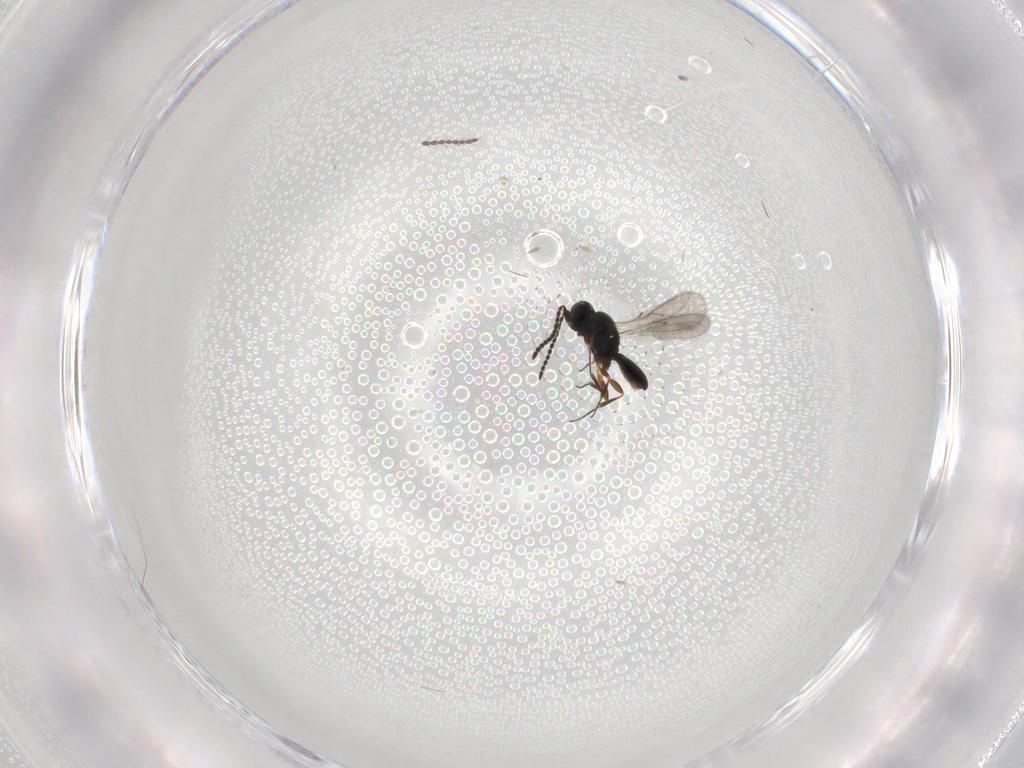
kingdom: Animalia
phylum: Arthropoda
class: Insecta
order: Hymenoptera
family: Scelionidae
